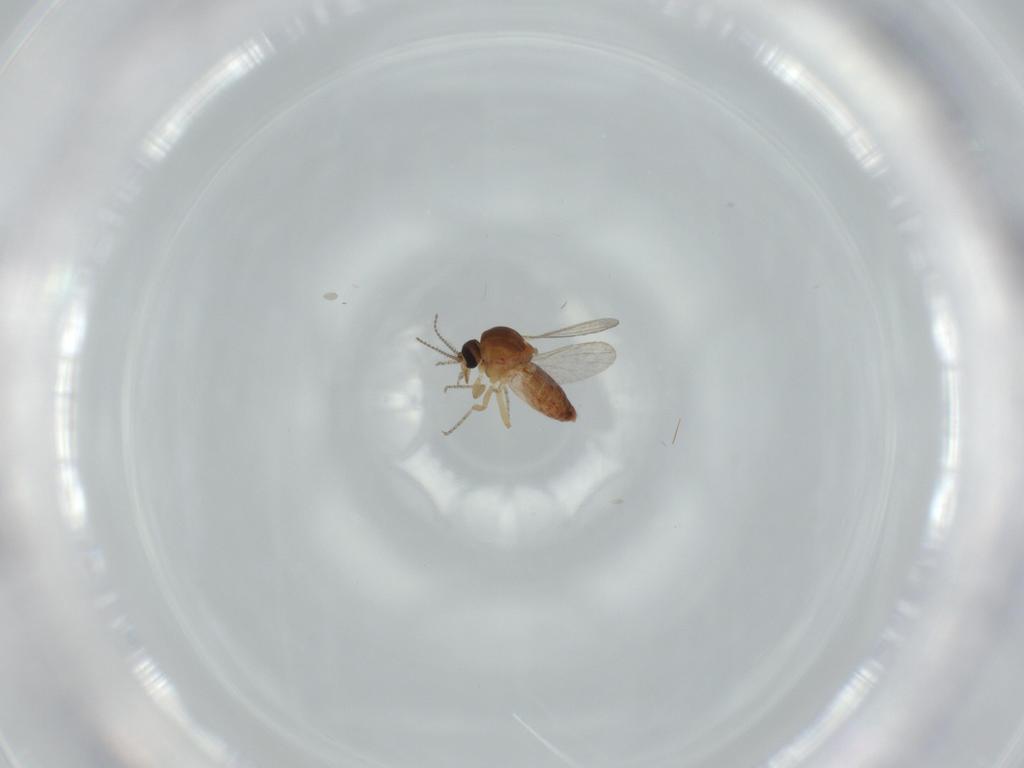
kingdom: Animalia
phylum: Arthropoda
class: Insecta
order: Diptera
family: Ceratopogonidae
